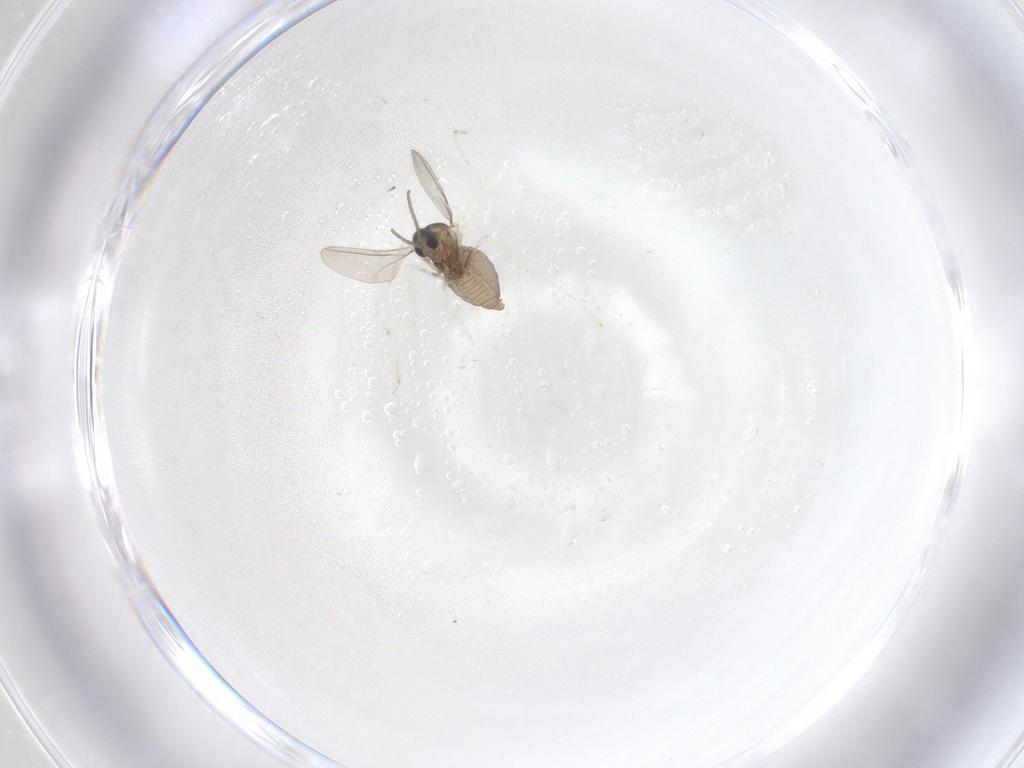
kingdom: Animalia
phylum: Arthropoda
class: Insecta
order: Diptera
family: Cecidomyiidae
